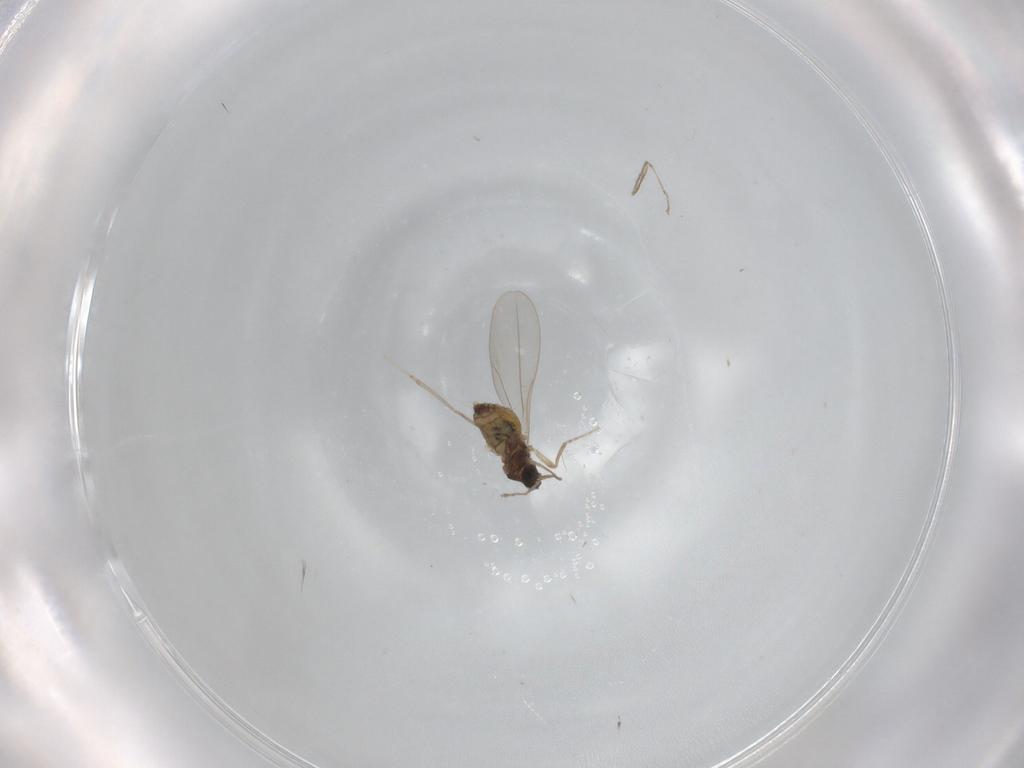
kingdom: Animalia
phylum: Arthropoda
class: Insecta
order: Diptera
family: Cecidomyiidae
